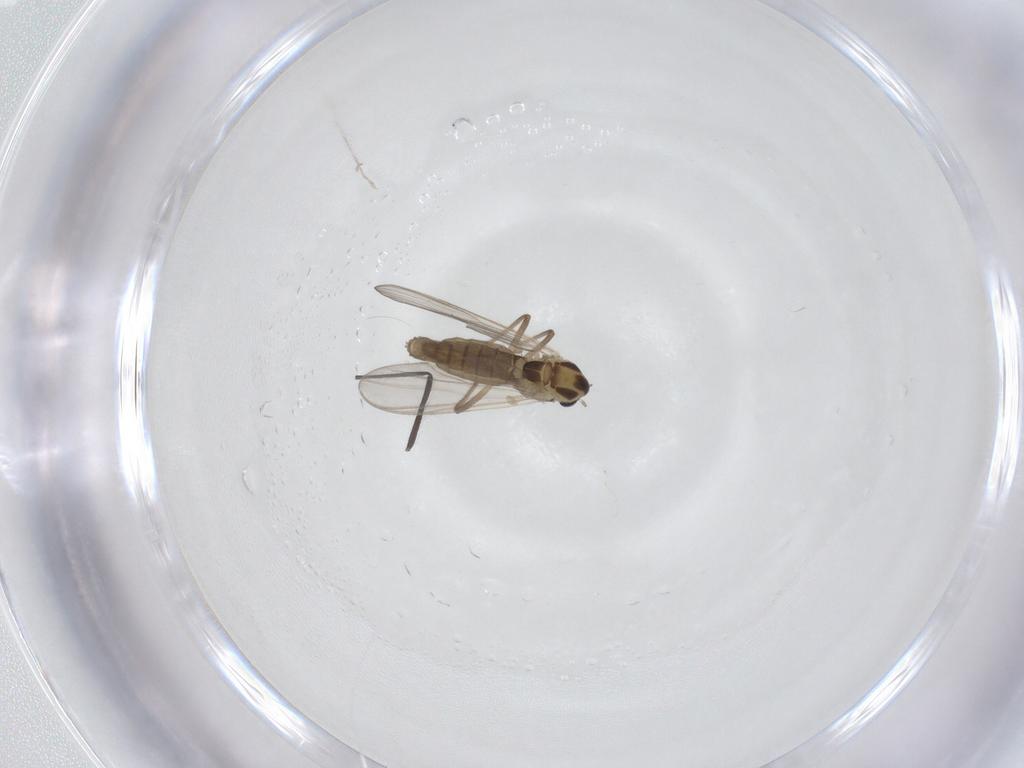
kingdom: Animalia
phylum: Arthropoda
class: Insecta
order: Diptera
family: Chironomidae
